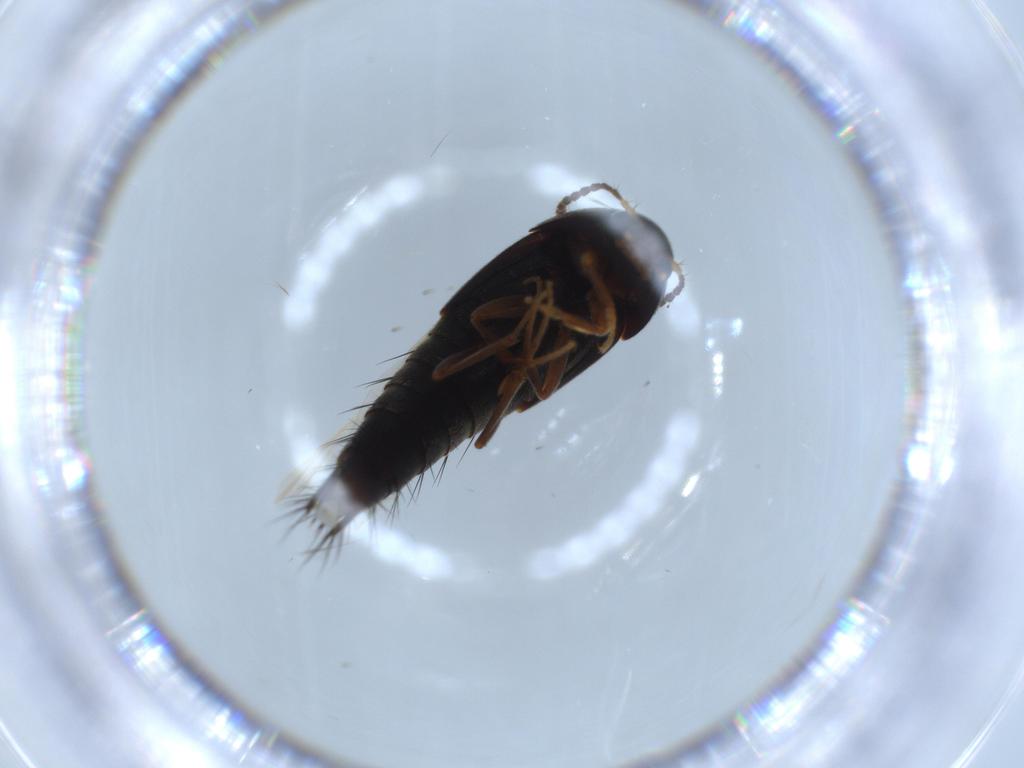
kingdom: Animalia
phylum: Arthropoda
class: Insecta
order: Coleoptera
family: Staphylinidae
